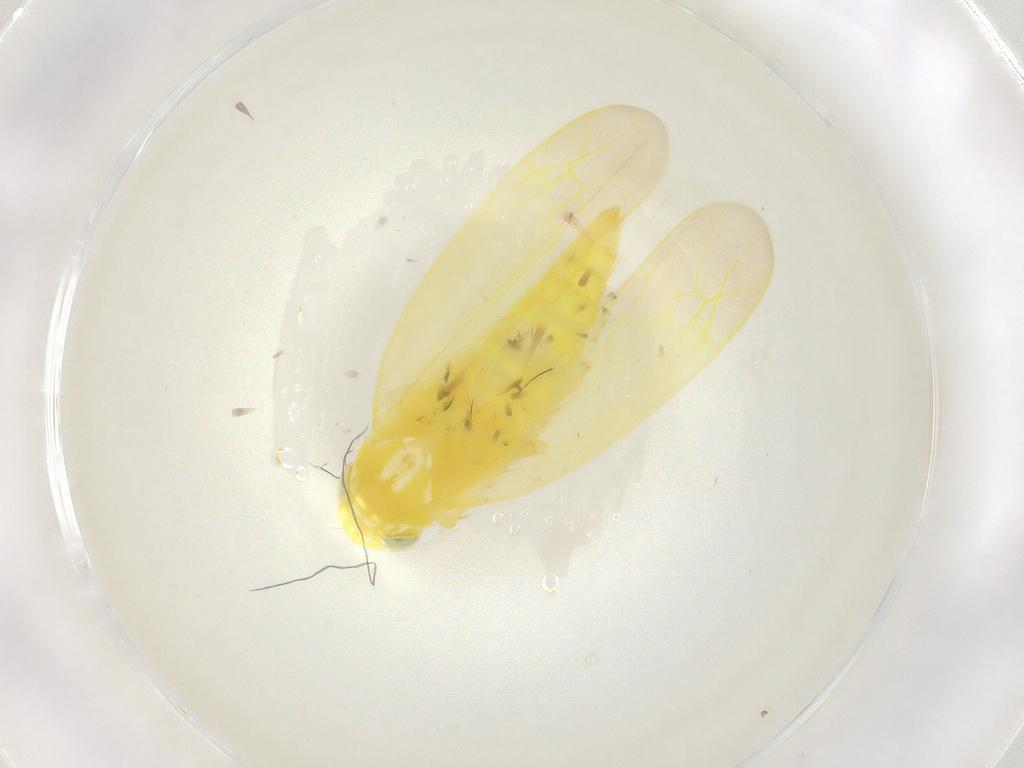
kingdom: Animalia
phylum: Arthropoda
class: Insecta
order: Hemiptera
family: Cicadellidae
